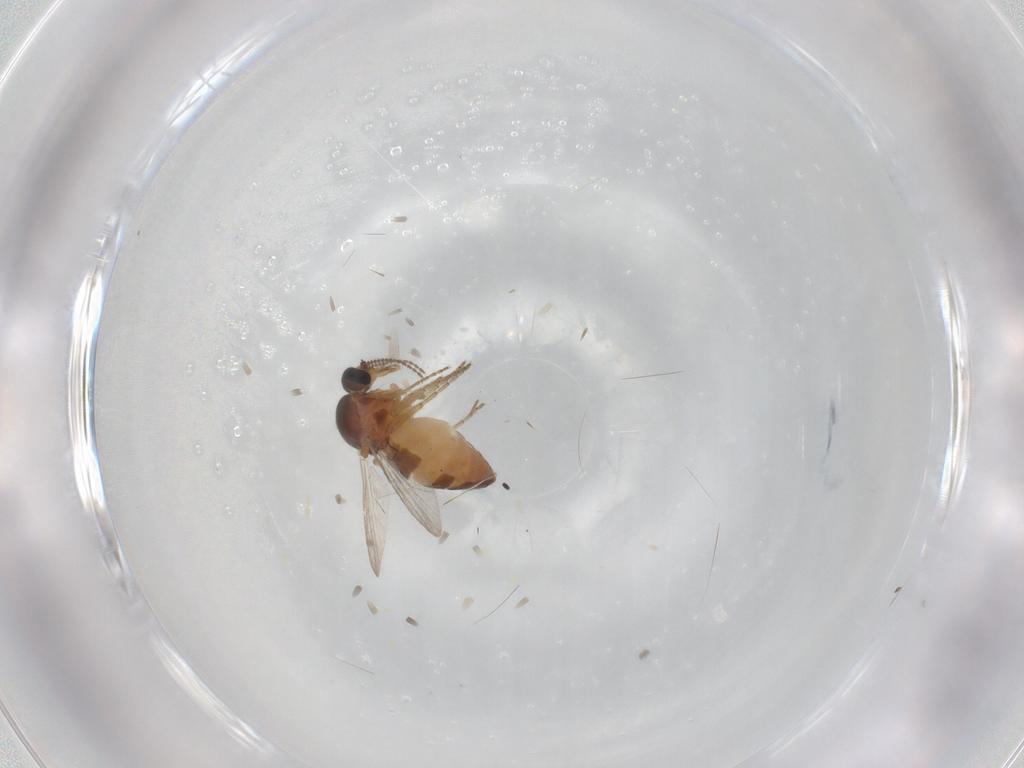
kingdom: Animalia
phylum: Arthropoda
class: Insecta
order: Diptera
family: Ceratopogonidae
